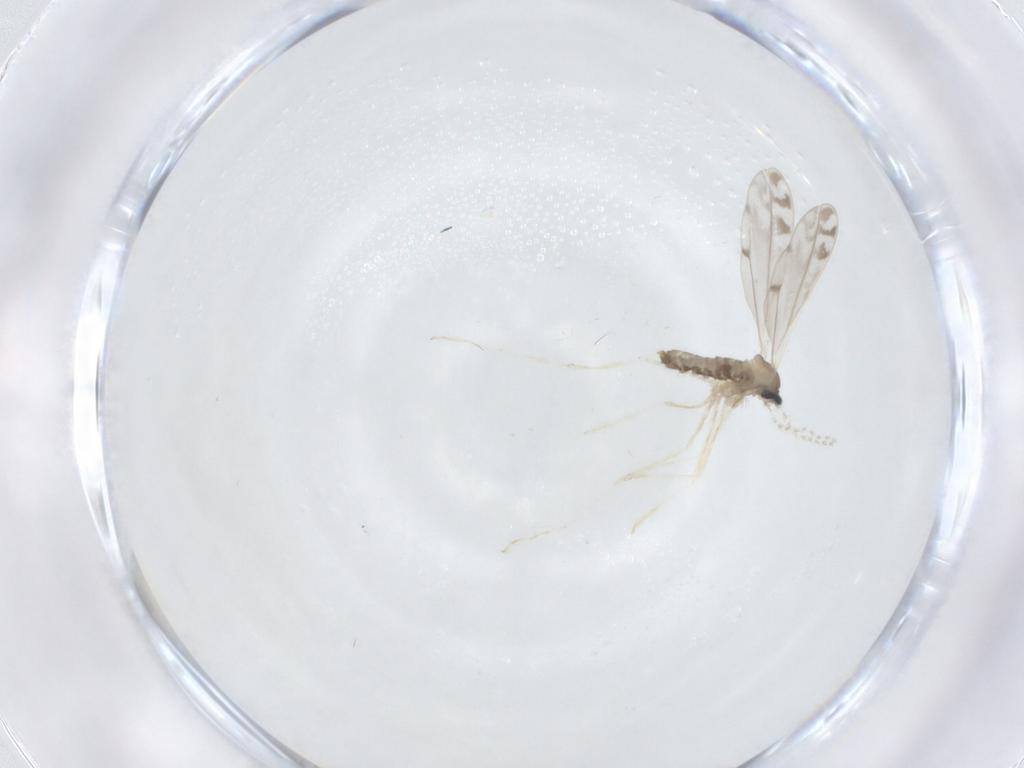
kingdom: Animalia
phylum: Arthropoda
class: Insecta
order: Diptera
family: Cecidomyiidae
